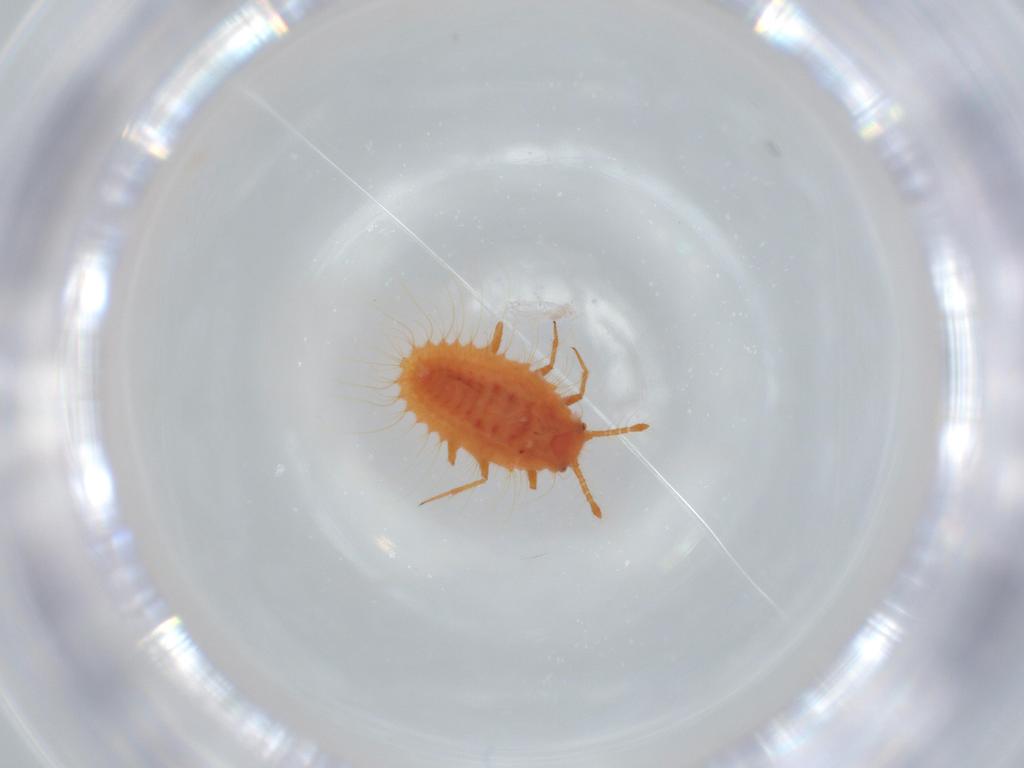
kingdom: Animalia
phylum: Arthropoda
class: Insecta
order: Hemiptera
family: Coccoidea_incertae_sedis
